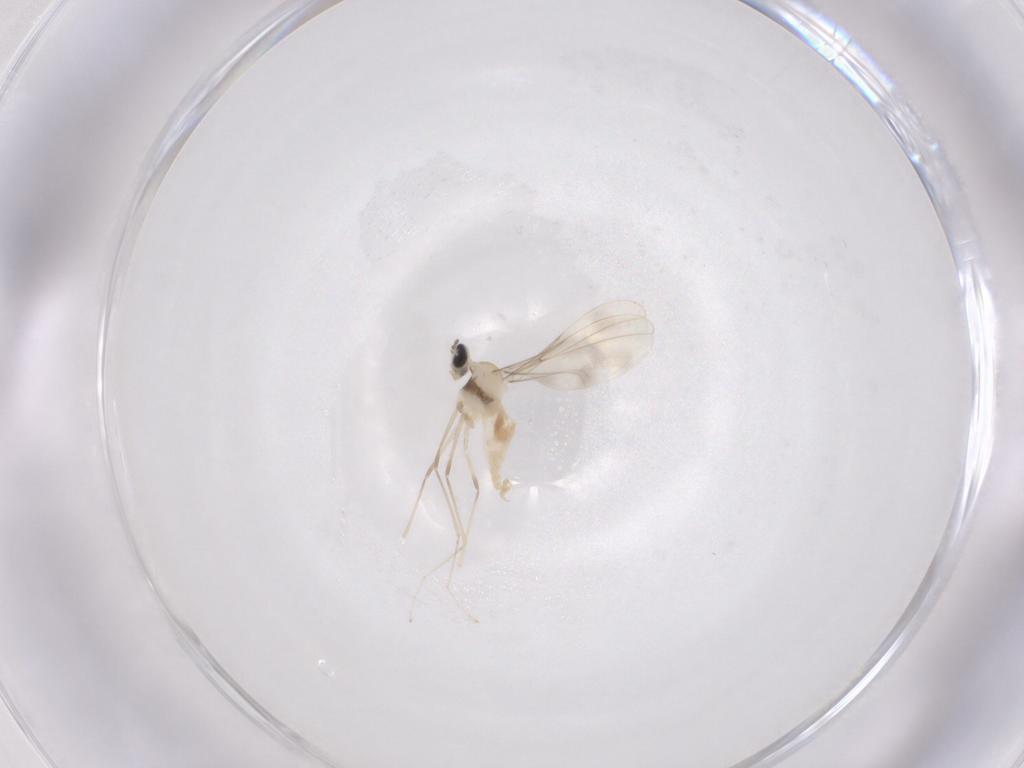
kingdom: Animalia
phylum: Arthropoda
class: Insecta
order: Diptera
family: Cecidomyiidae
